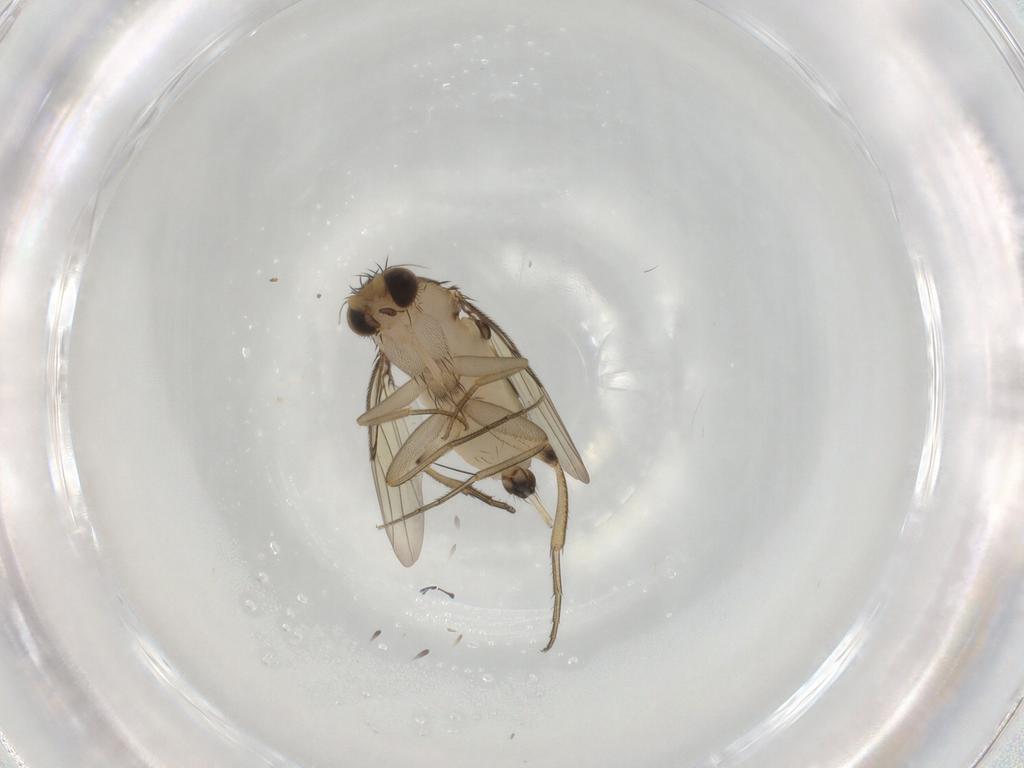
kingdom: Animalia
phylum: Arthropoda
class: Insecta
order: Diptera
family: Phoridae
